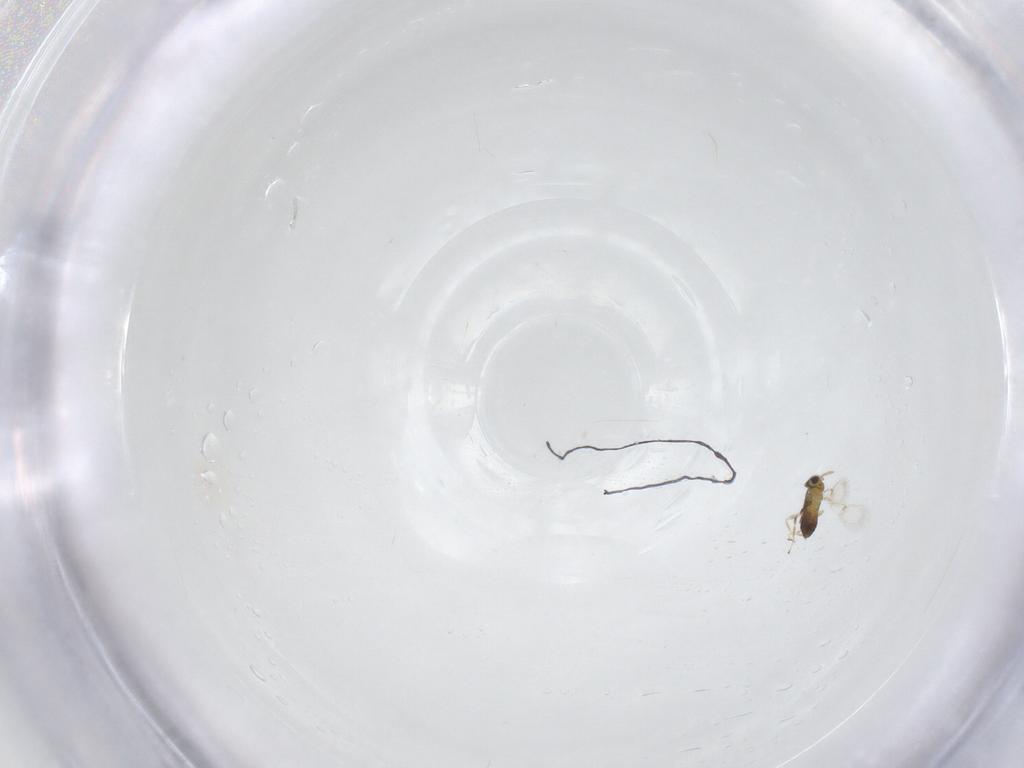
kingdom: Animalia
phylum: Arthropoda
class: Insecta
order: Hymenoptera
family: Trichogrammatidae
